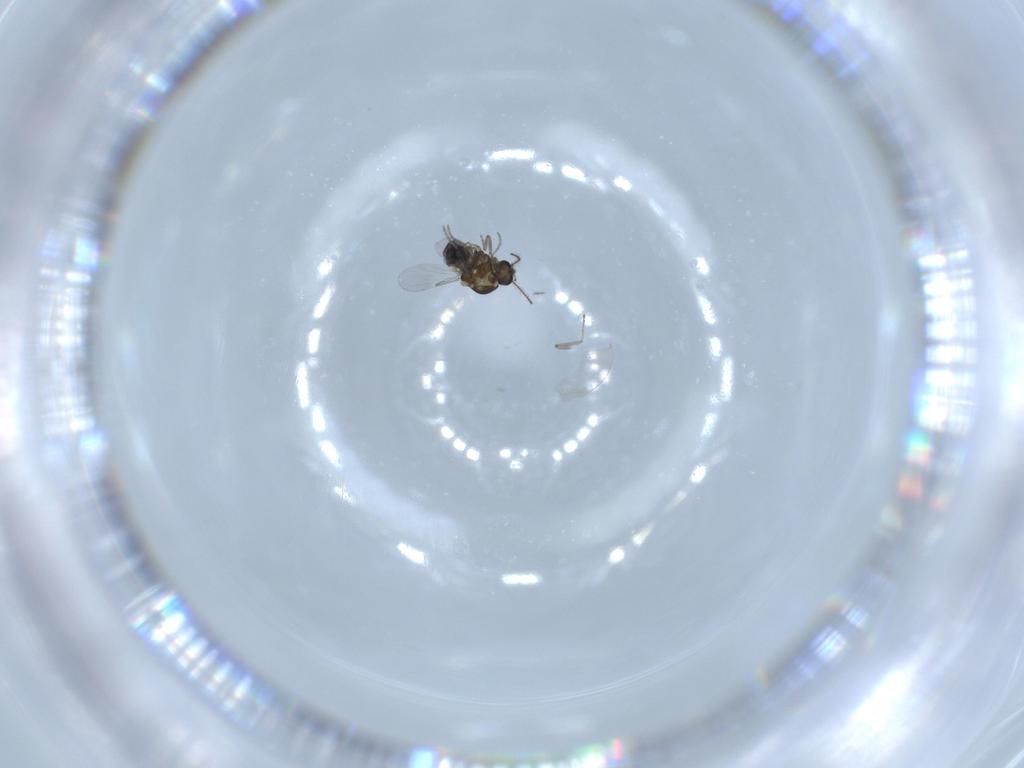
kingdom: Animalia
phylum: Arthropoda
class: Insecta
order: Diptera
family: Ceratopogonidae
